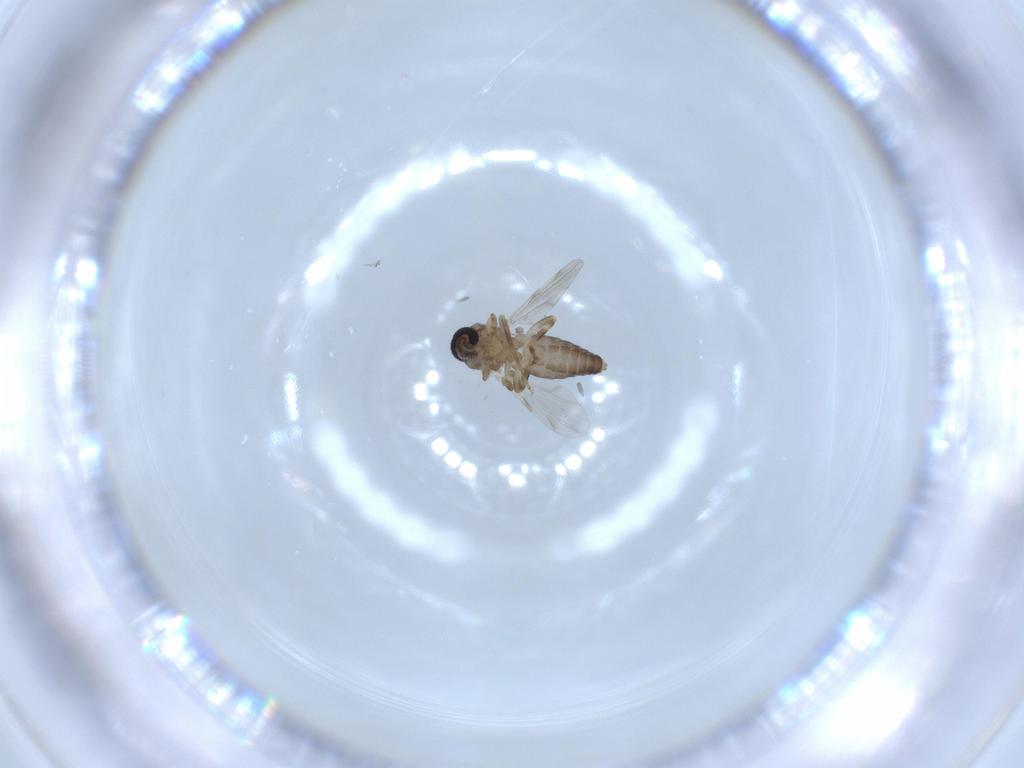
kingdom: Animalia
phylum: Arthropoda
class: Insecta
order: Diptera
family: Ceratopogonidae
